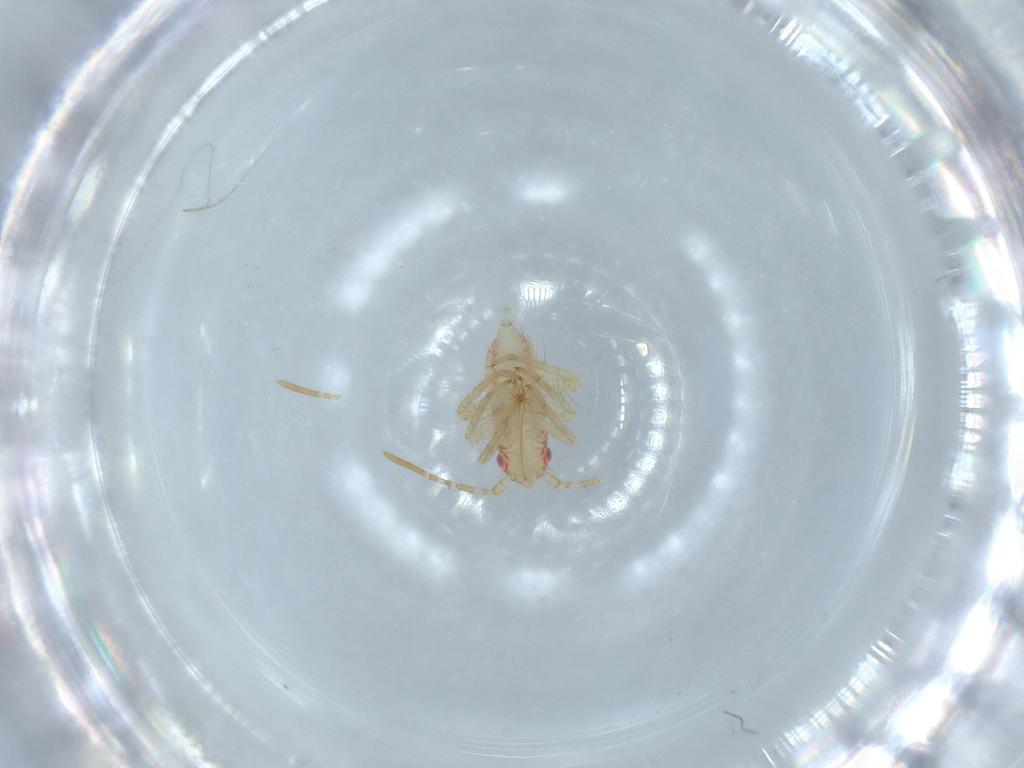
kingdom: Animalia
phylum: Arthropoda
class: Insecta
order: Hemiptera
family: Miridae
